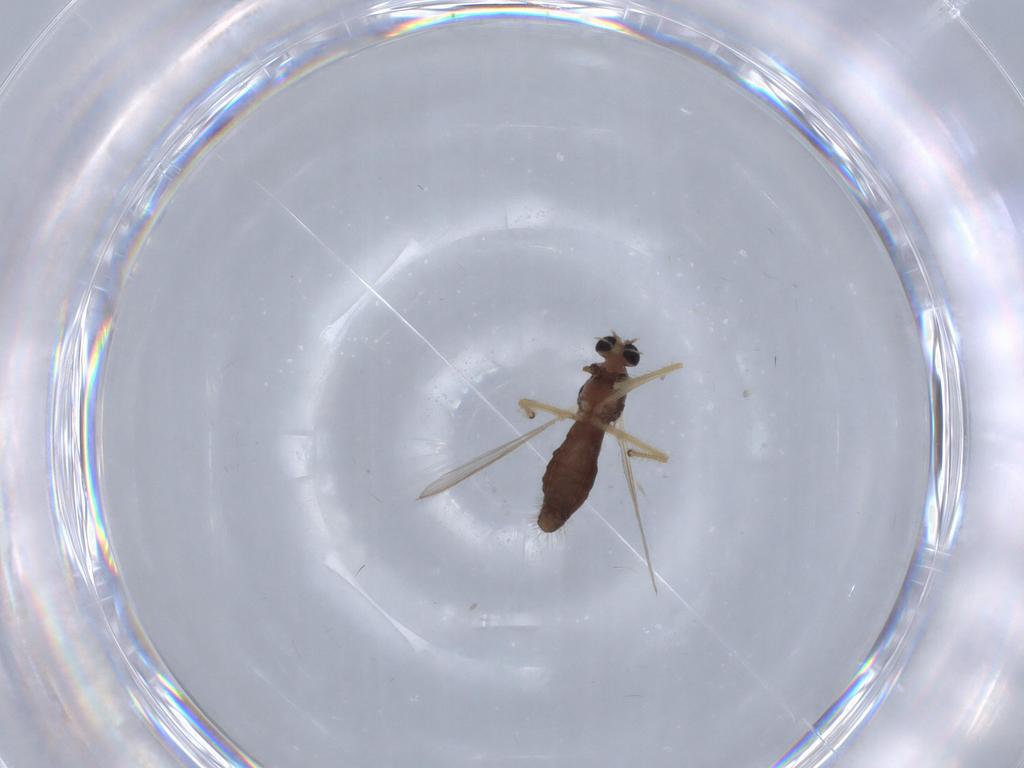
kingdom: Animalia
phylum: Arthropoda
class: Insecta
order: Diptera
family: Chironomidae
